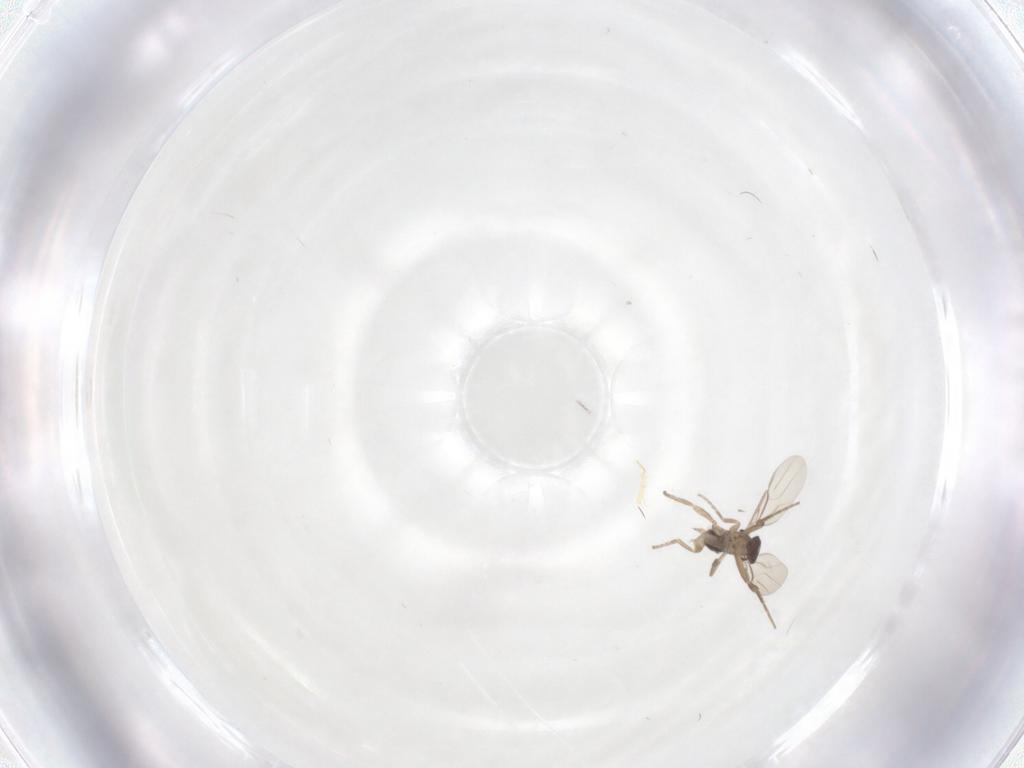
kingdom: Animalia
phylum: Arthropoda
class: Insecta
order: Diptera
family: Phoridae
